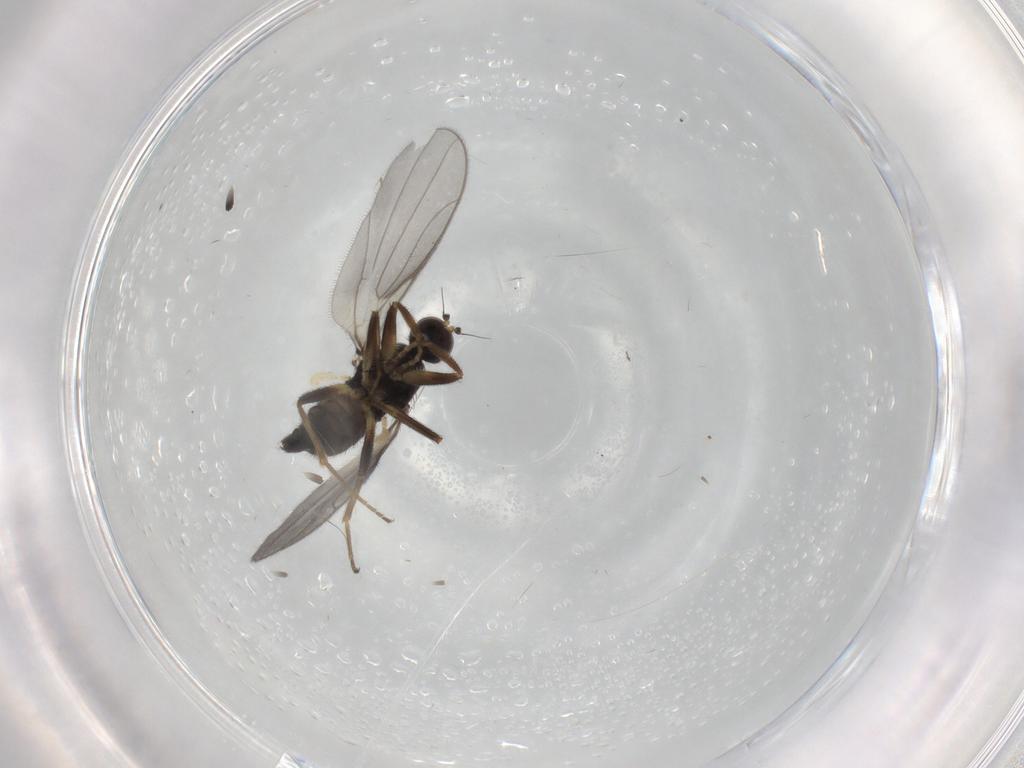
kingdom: Animalia
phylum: Arthropoda
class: Insecta
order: Diptera
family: Hybotidae
